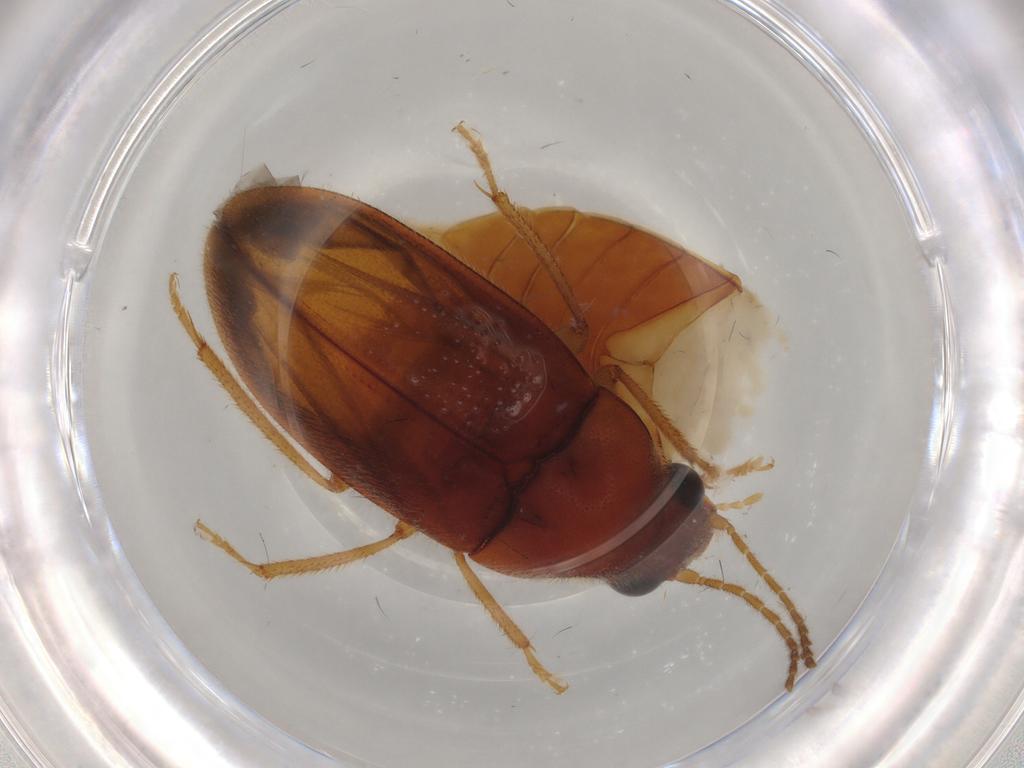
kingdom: Animalia
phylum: Arthropoda
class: Insecta
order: Coleoptera
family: Ptilodactylidae
